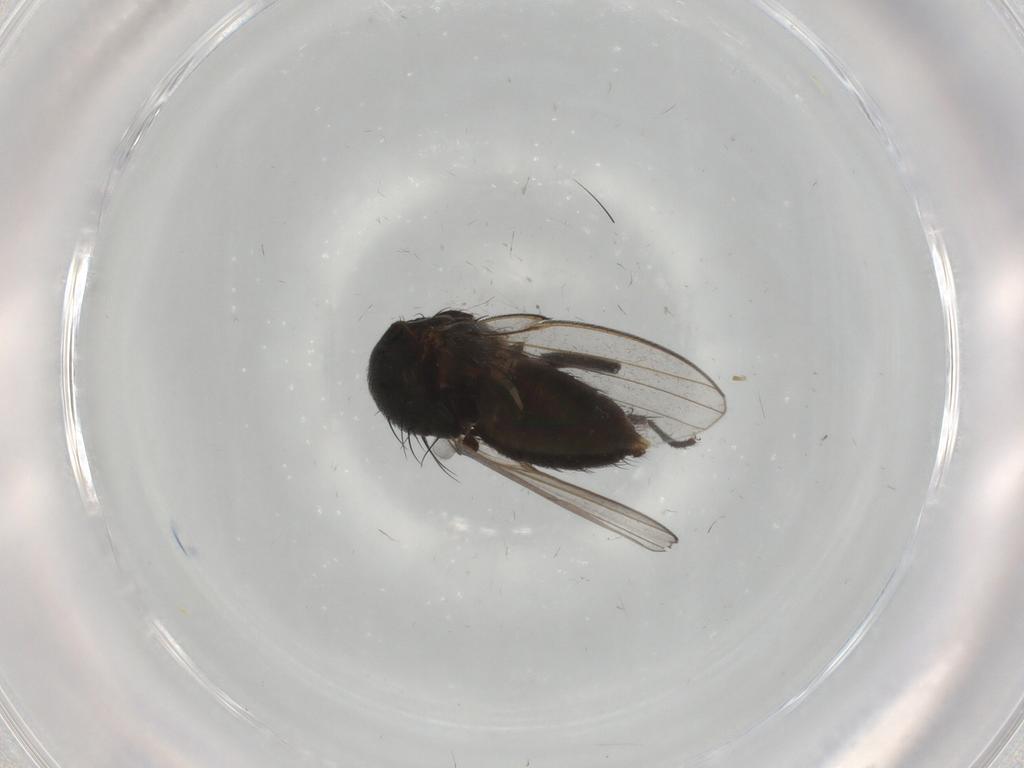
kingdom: Animalia
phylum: Arthropoda
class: Insecta
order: Diptera
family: Milichiidae
